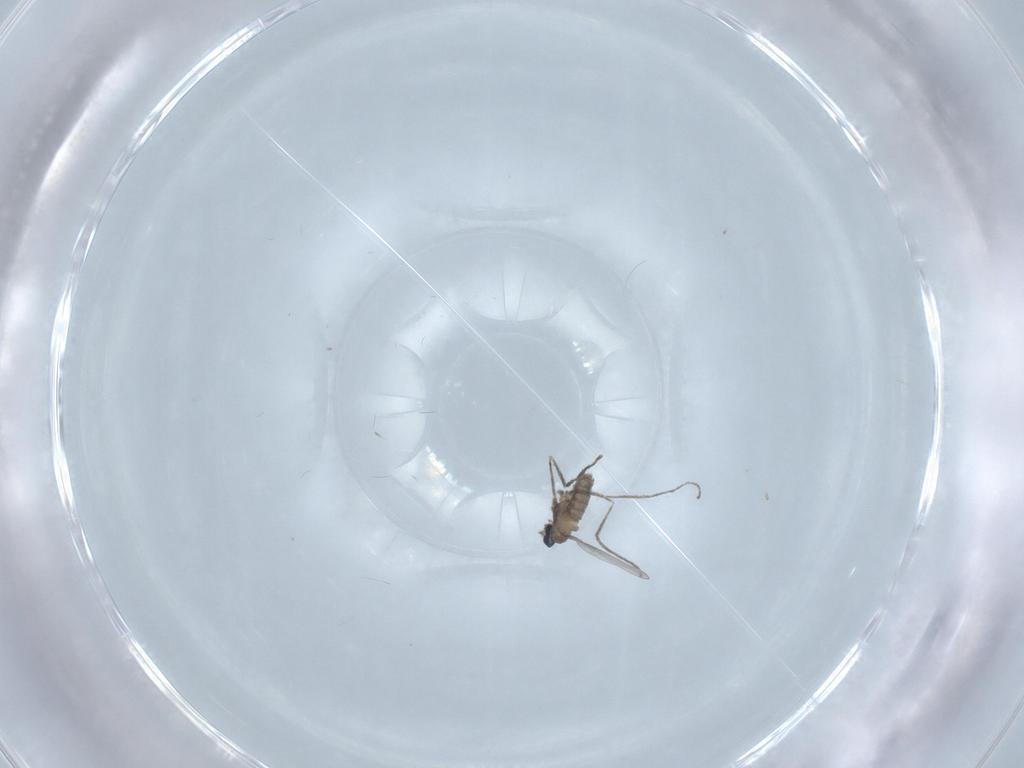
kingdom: Animalia
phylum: Arthropoda
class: Insecta
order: Diptera
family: Cecidomyiidae
